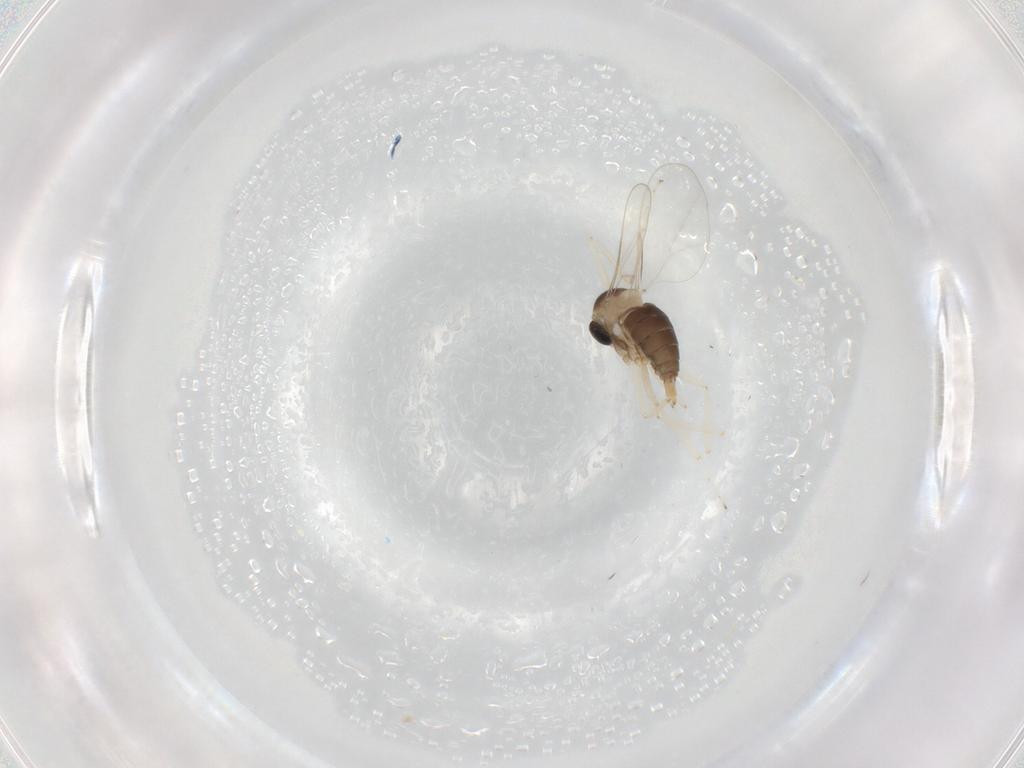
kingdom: Animalia
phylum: Arthropoda
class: Insecta
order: Diptera
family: Cecidomyiidae
